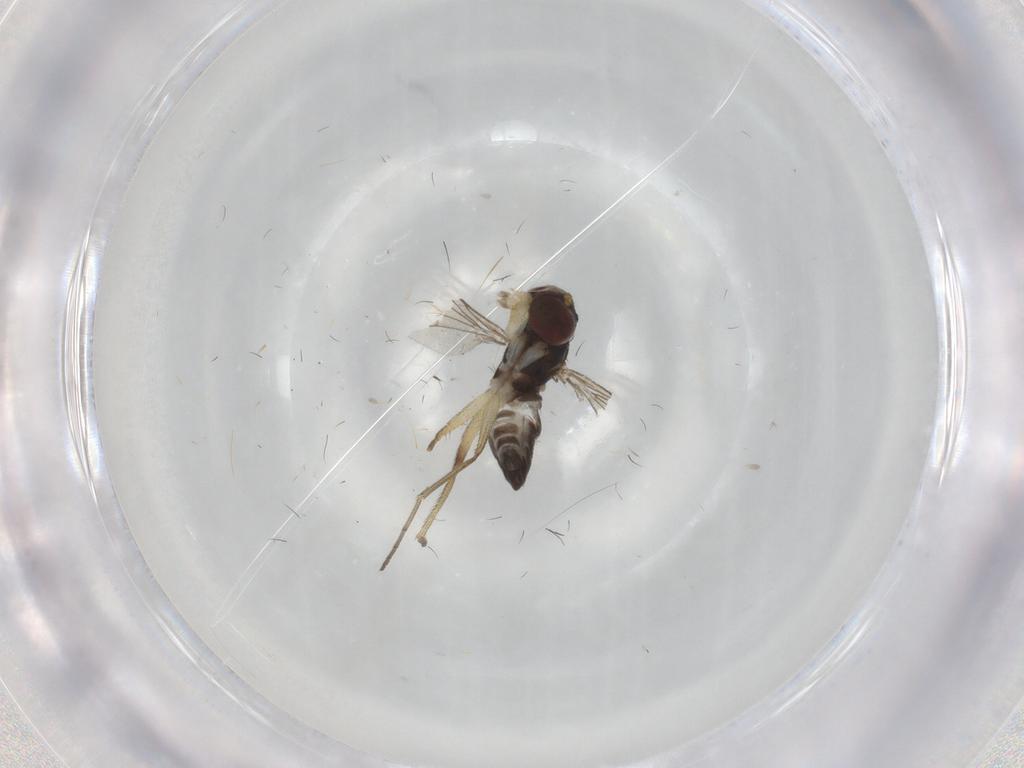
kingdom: Animalia
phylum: Arthropoda
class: Insecta
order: Diptera
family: Dolichopodidae
